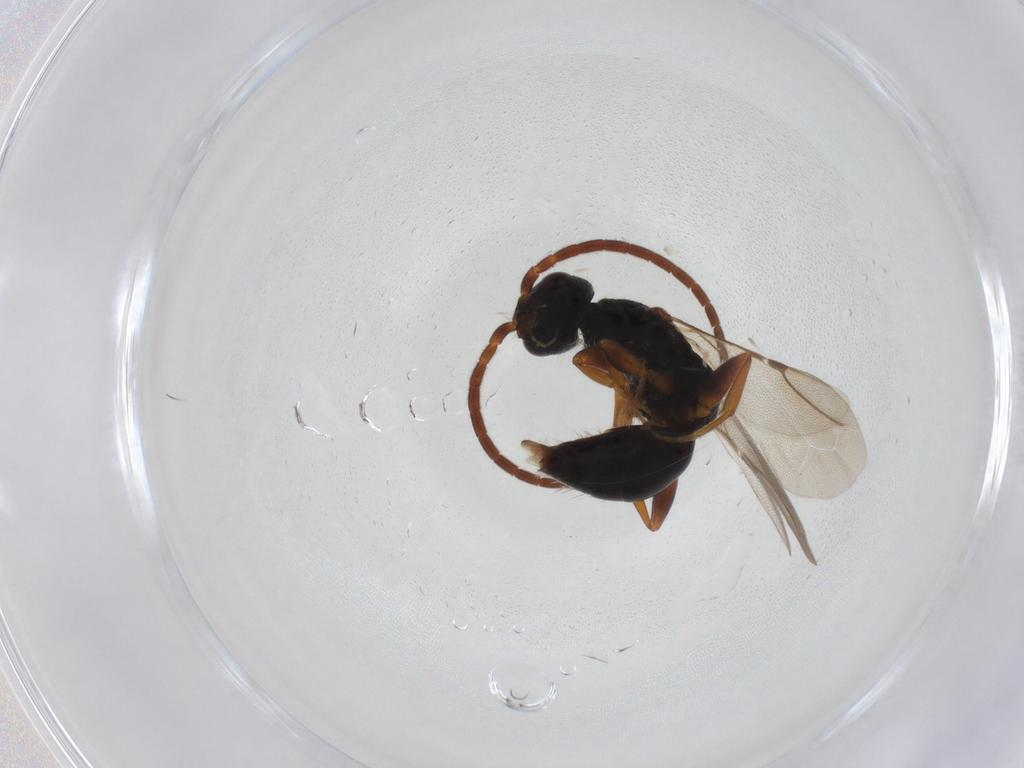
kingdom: Animalia
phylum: Arthropoda
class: Insecta
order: Hymenoptera
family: Bethylidae
